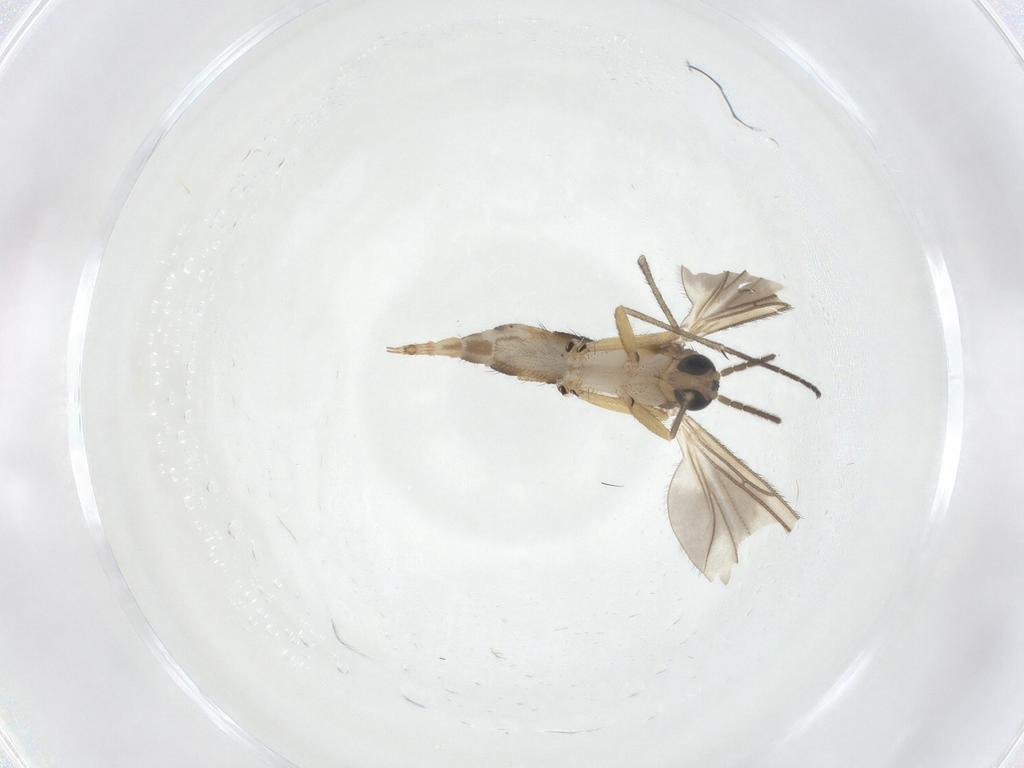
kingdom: Animalia
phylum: Arthropoda
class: Insecta
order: Diptera
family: Sciaridae
